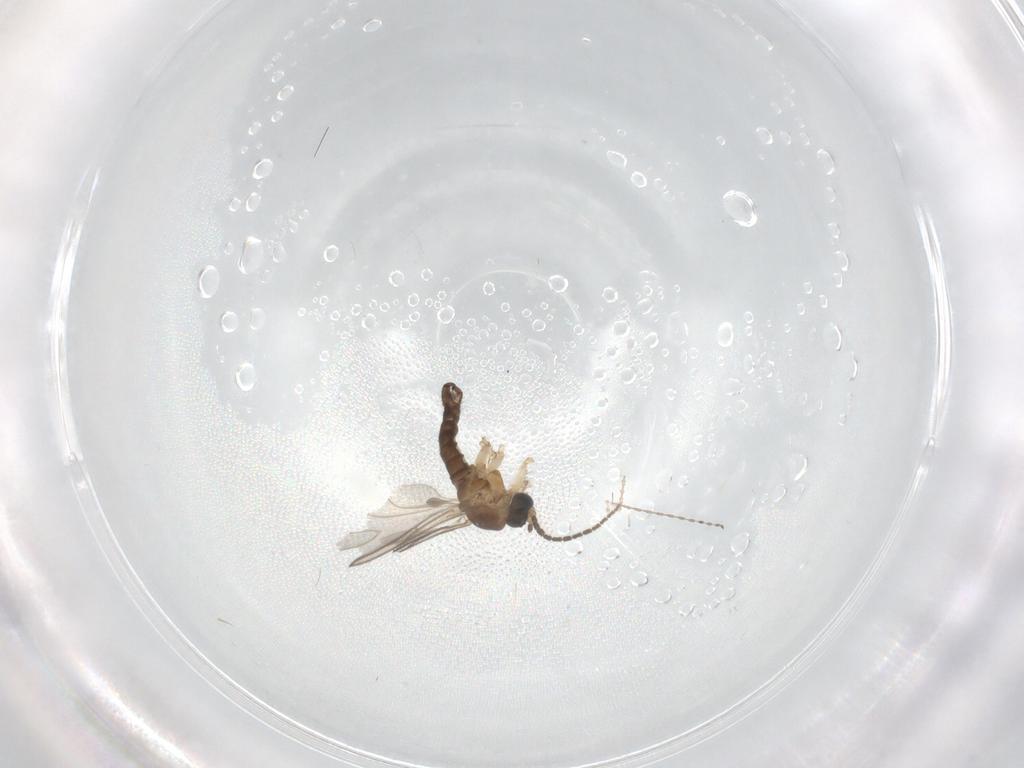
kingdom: Animalia
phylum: Arthropoda
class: Insecta
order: Diptera
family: Sciaridae
